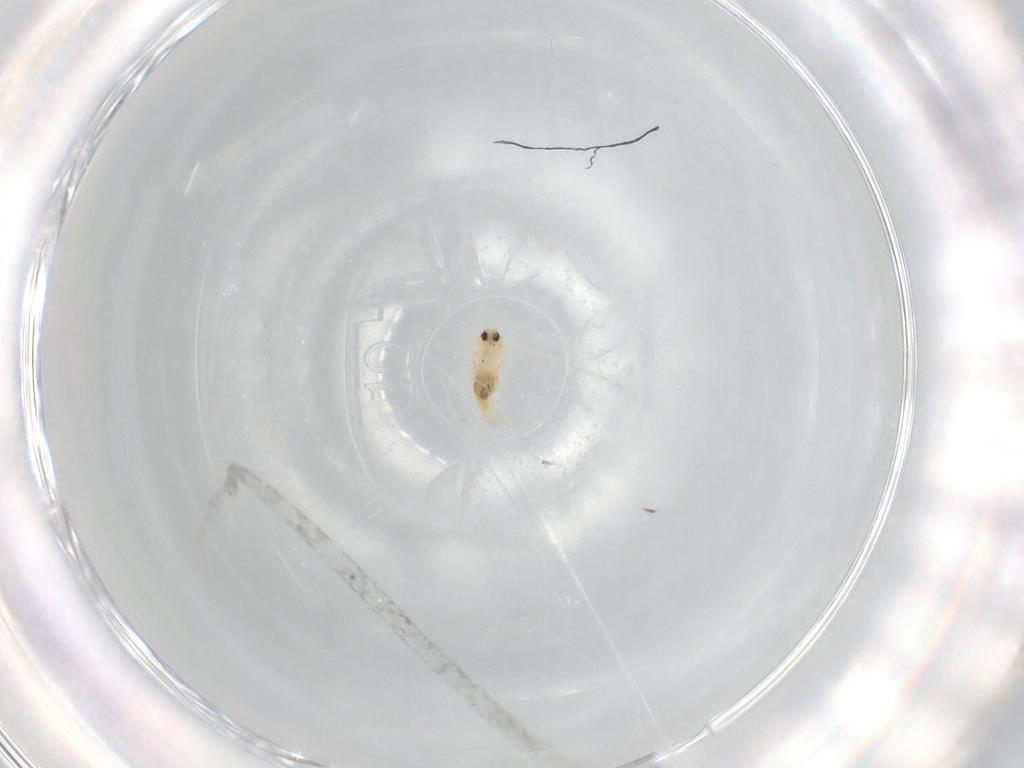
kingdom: Animalia
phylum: Arthropoda
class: Insecta
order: Hemiptera
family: Aleyrodidae
